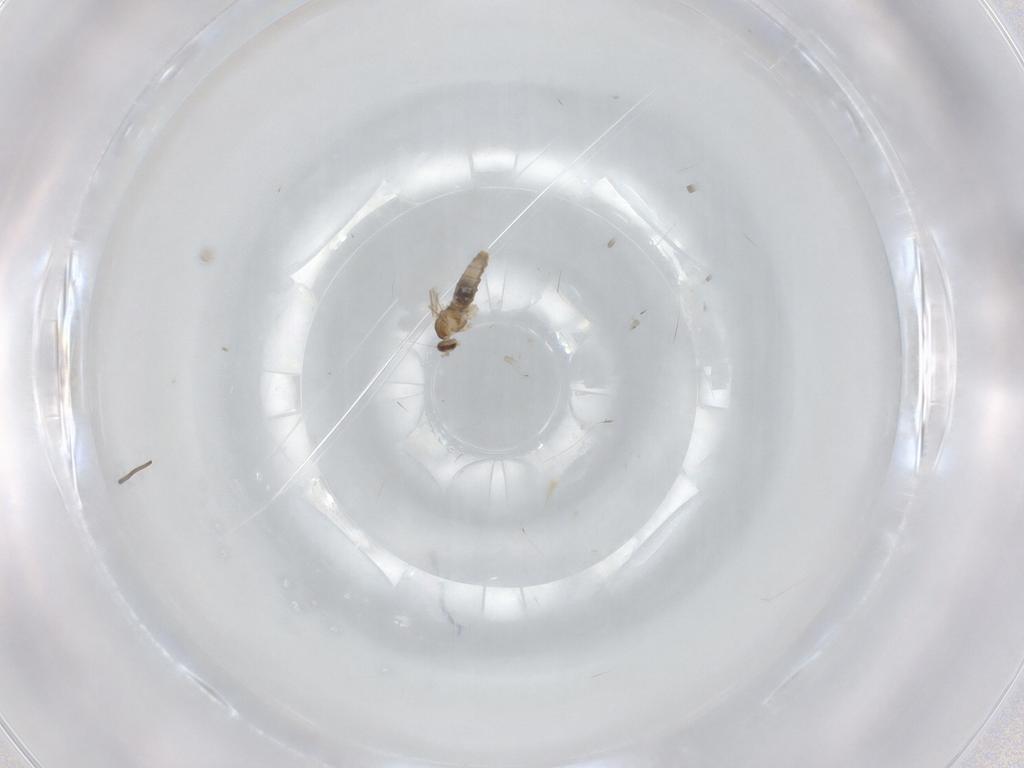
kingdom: Animalia
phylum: Arthropoda
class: Insecta
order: Diptera
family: Cecidomyiidae
